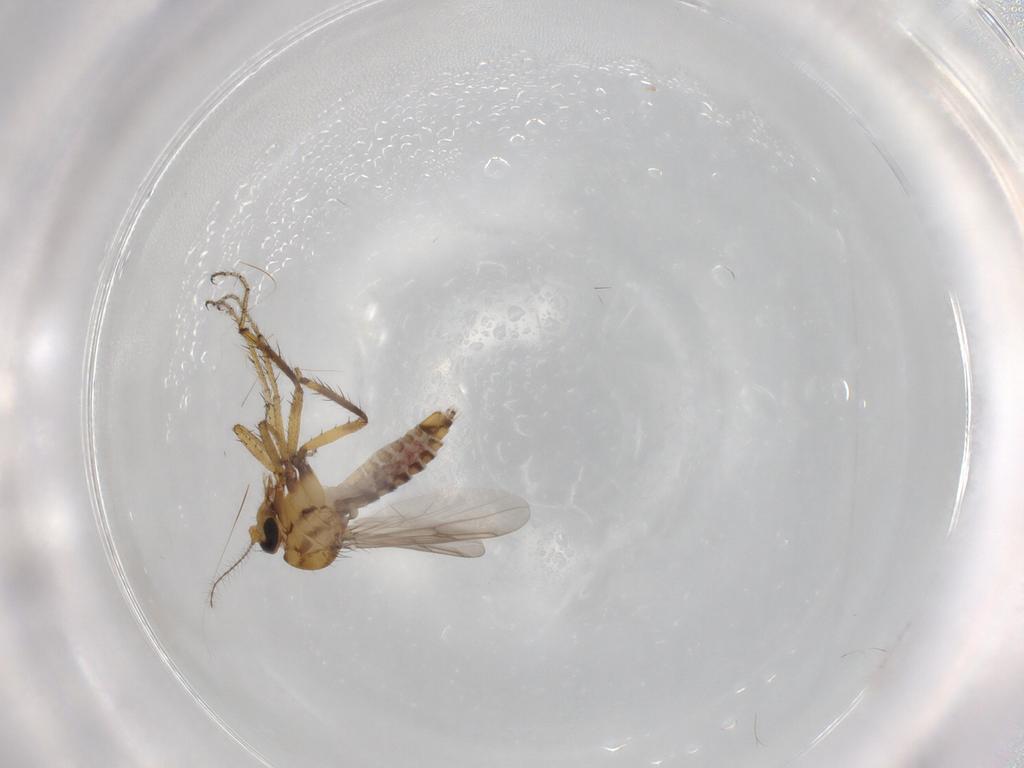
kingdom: Animalia
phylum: Arthropoda
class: Insecta
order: Diptera
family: Ceratopogonidae
